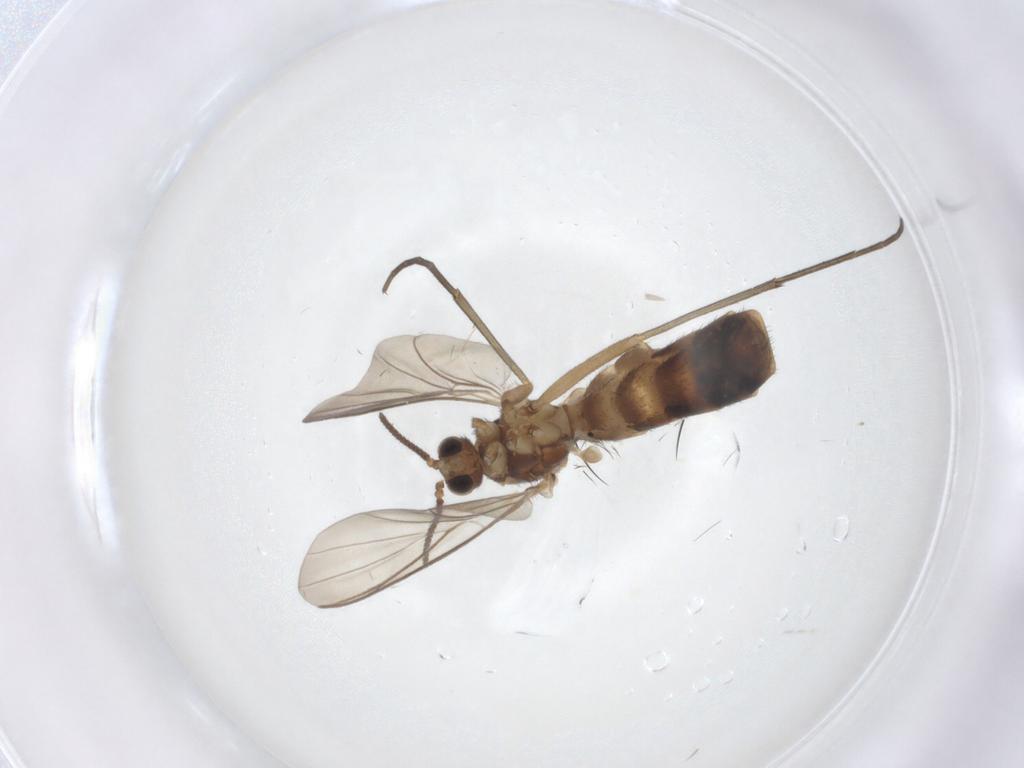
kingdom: Animalia
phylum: Arthropoda
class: Insecta
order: Diptera
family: Keroplatidae
